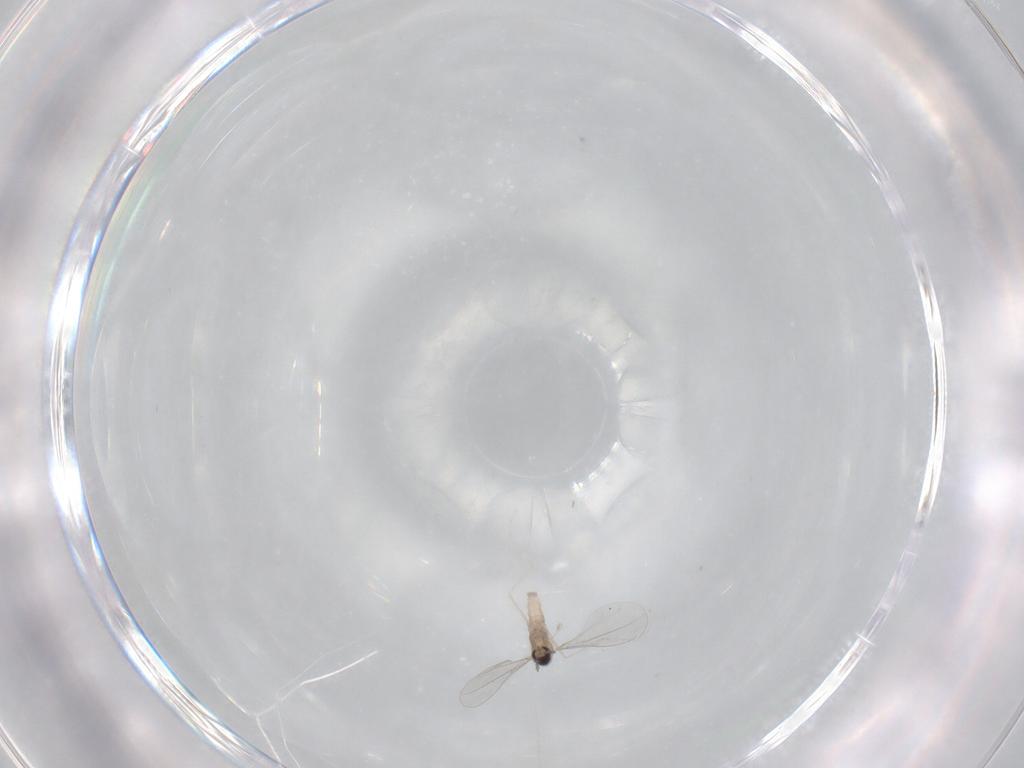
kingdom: Animalia
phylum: Arthropoda
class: Insecta
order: Diptera
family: Cecidomyiidae
